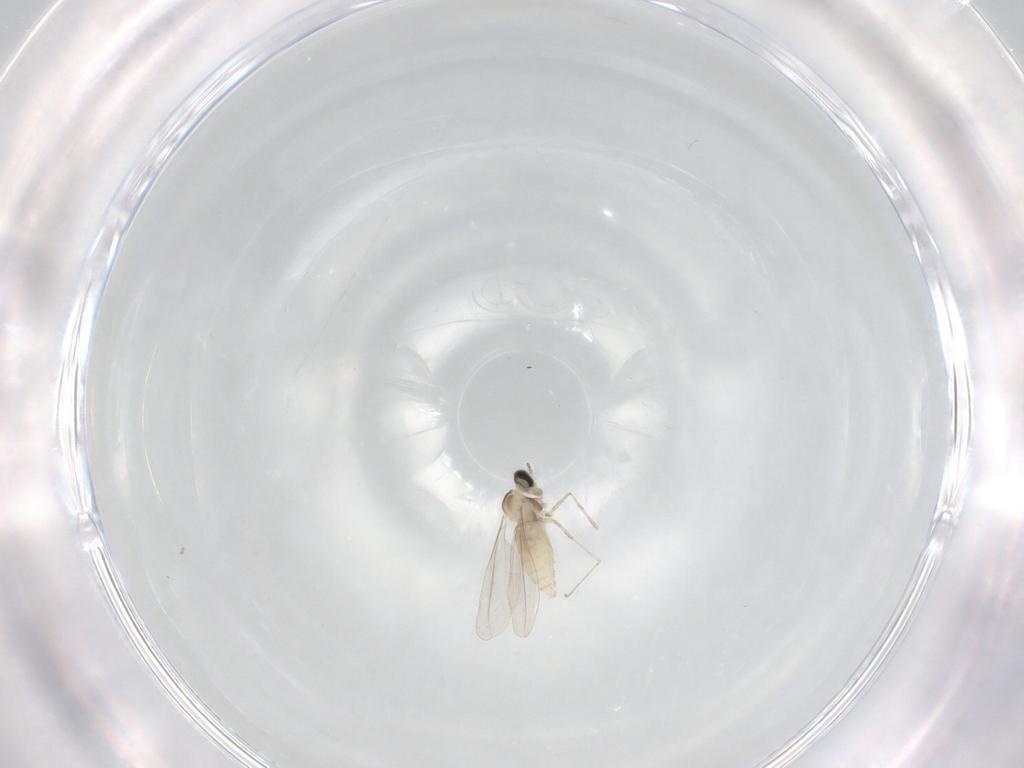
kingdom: Animalia
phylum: Arthropoda
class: Insecta
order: Diptera
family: Cecidomyiidae
